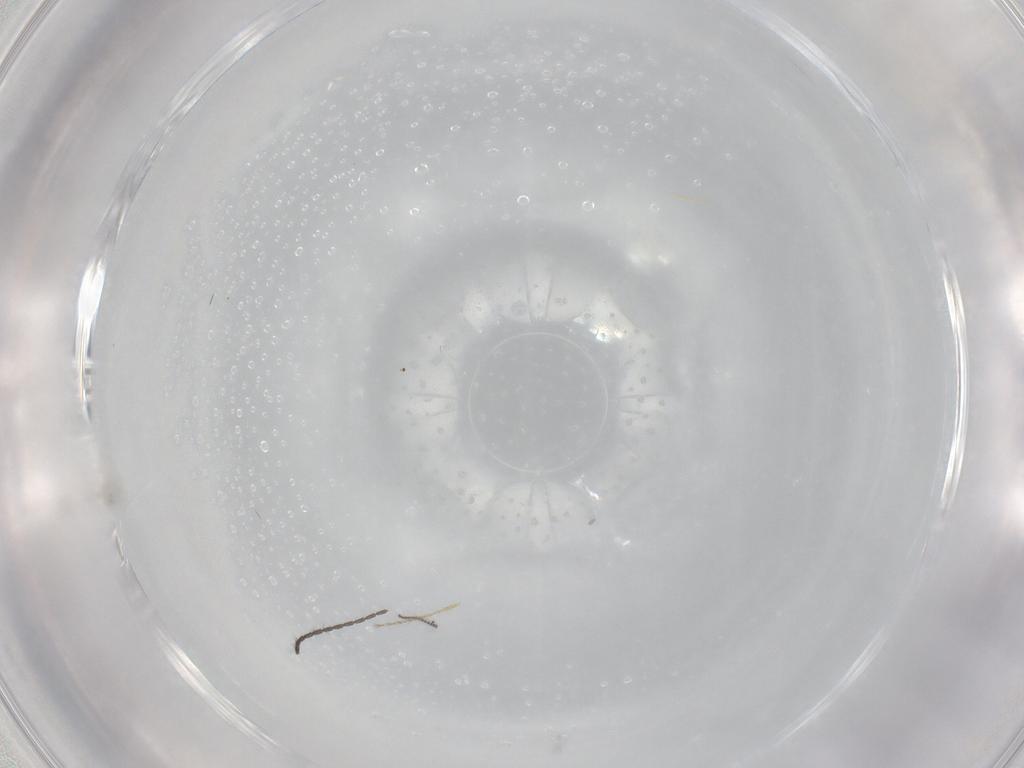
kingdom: Animalia
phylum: Arthropoda
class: Insecta
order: Diptera
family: Cecidomyiidae
